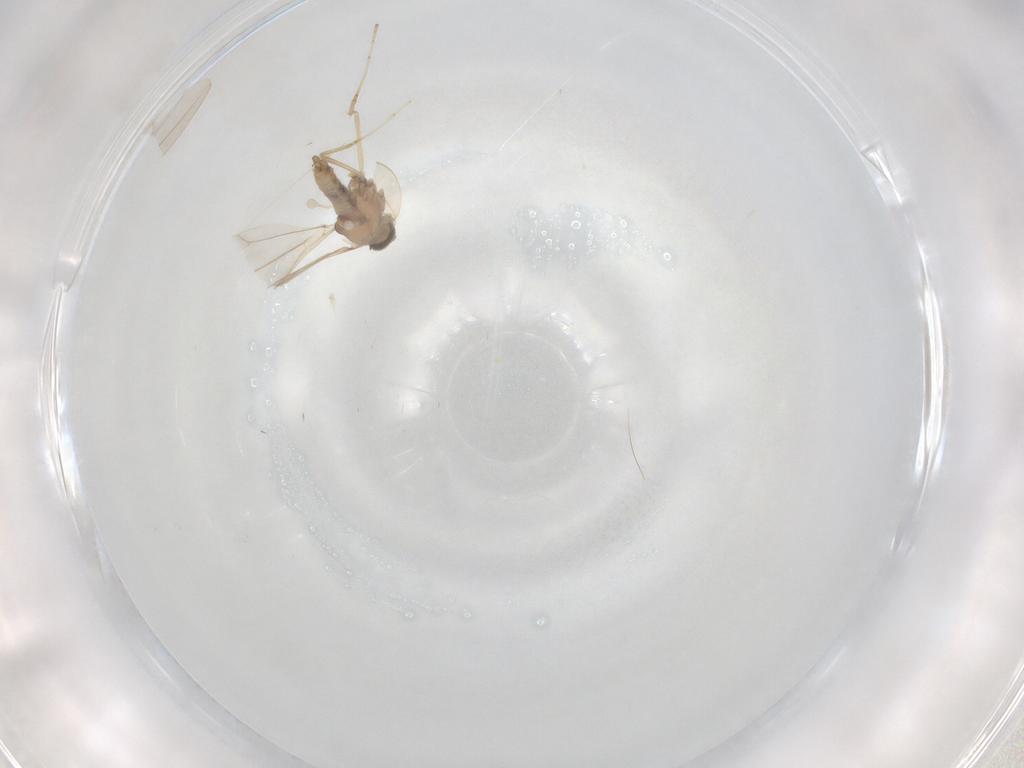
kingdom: Animalia
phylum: Arthropoda
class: Insecta
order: Diptera
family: Cecidomyiidae
